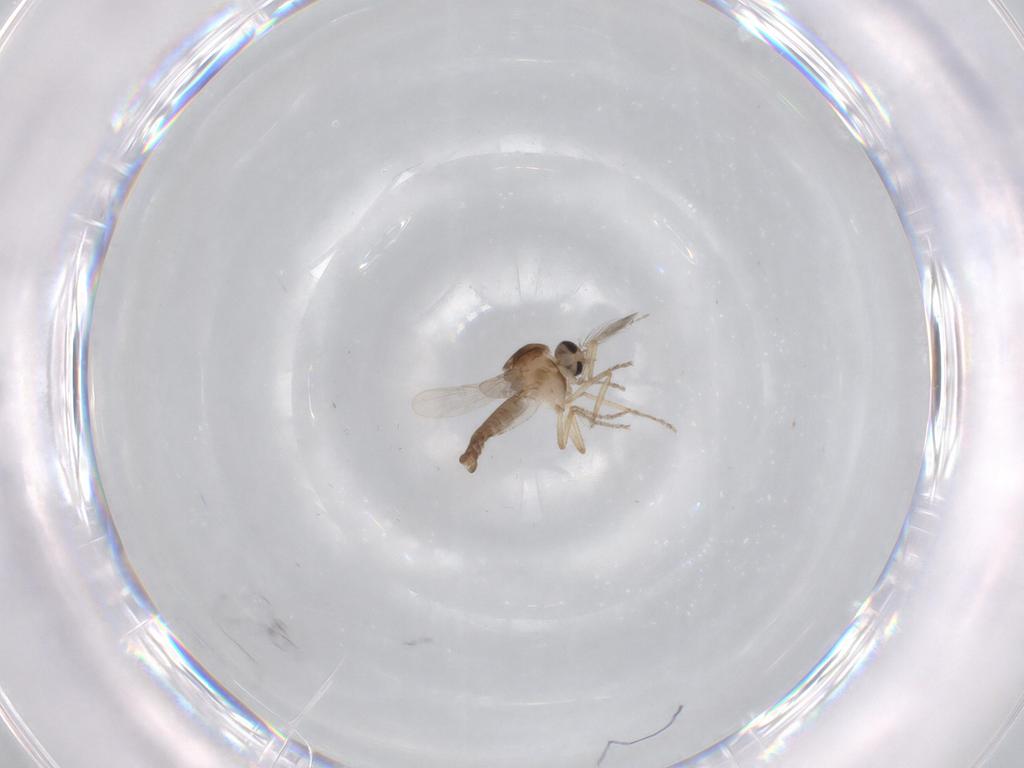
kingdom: Animalia
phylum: Arthropoda
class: Insecta
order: Diptera
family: Ceratopogonidae
